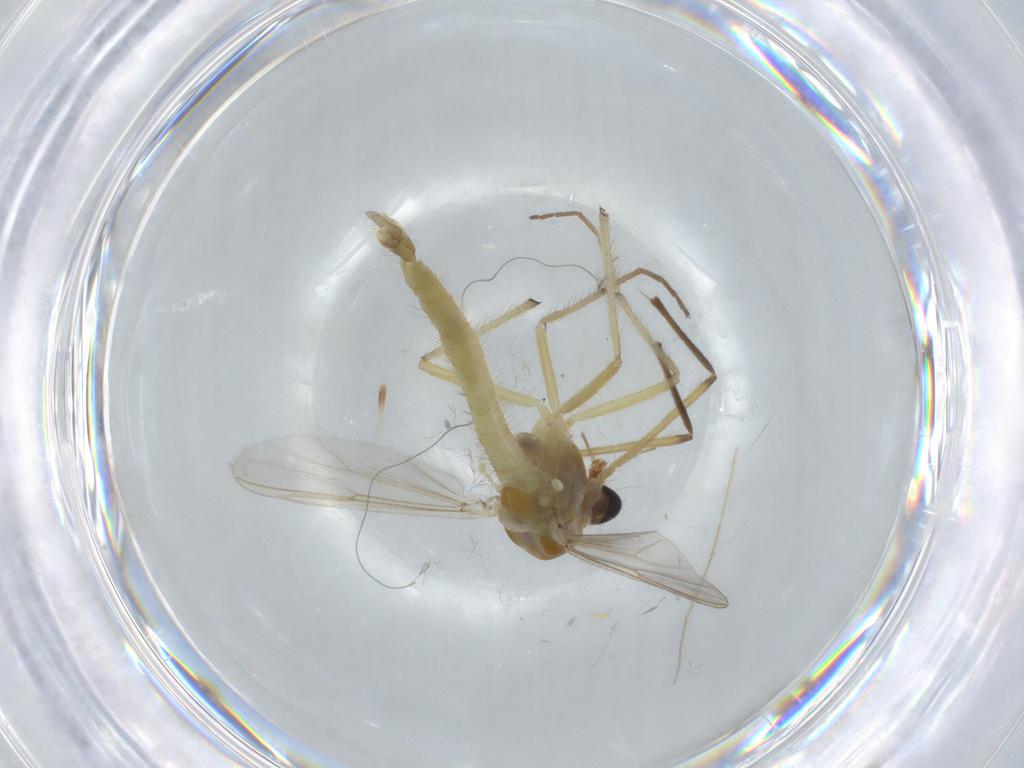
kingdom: Animalia
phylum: Arthropoda
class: Insecta
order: Diptera
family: Chironomidae
